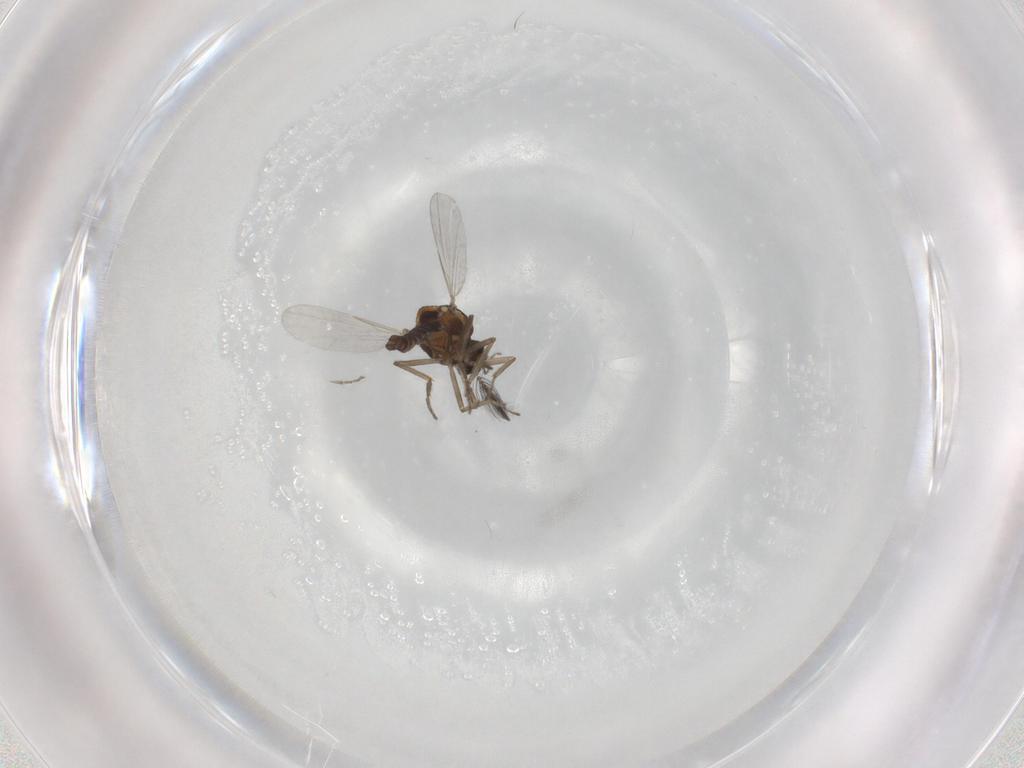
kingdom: Animalia
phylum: Arthropoda
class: Insecta
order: Diptera
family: Ceratopogonidae
